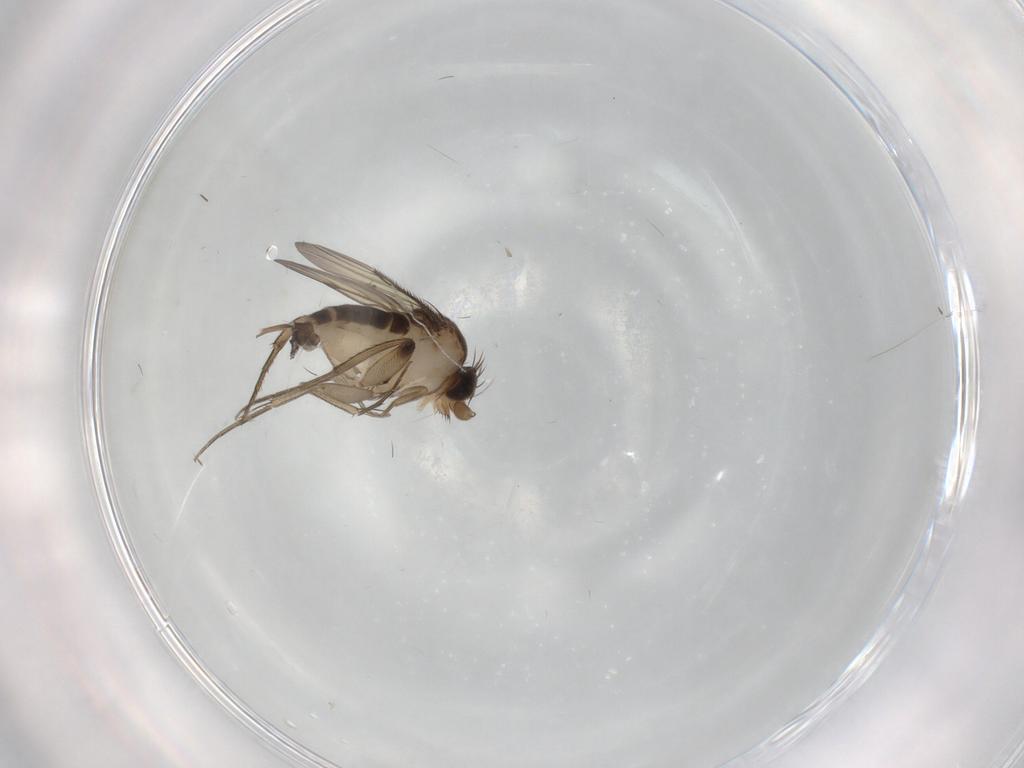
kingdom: Animalia
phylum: Arthropoda
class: Insecta
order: Diptera
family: Phoridae
